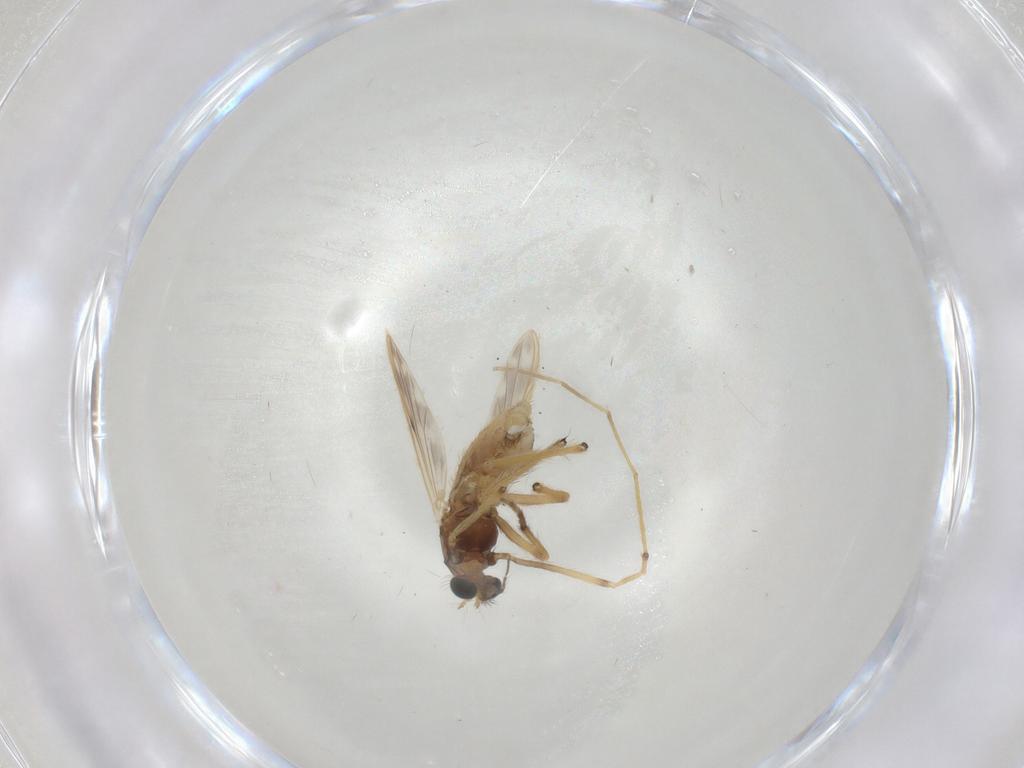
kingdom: Animalia
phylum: Arthropoda
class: Insecta
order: Diptera
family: Chironomidae
